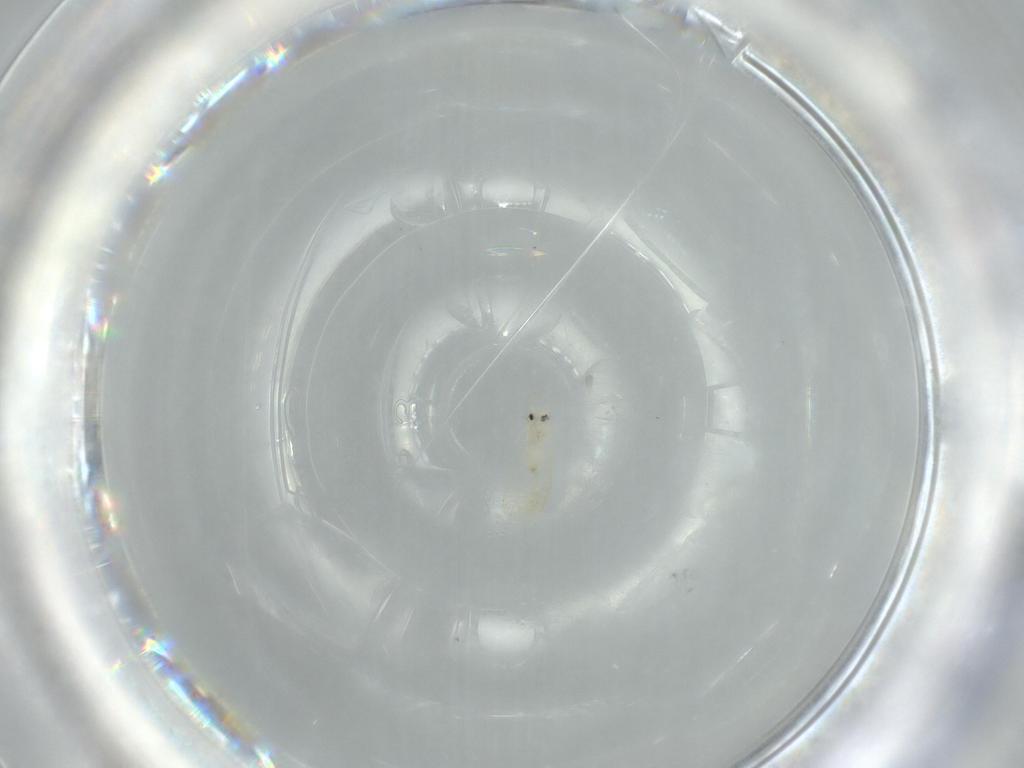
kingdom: Animalia
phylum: Arthropoda
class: Insecta
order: Hemiptera
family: Aleyrodidae
